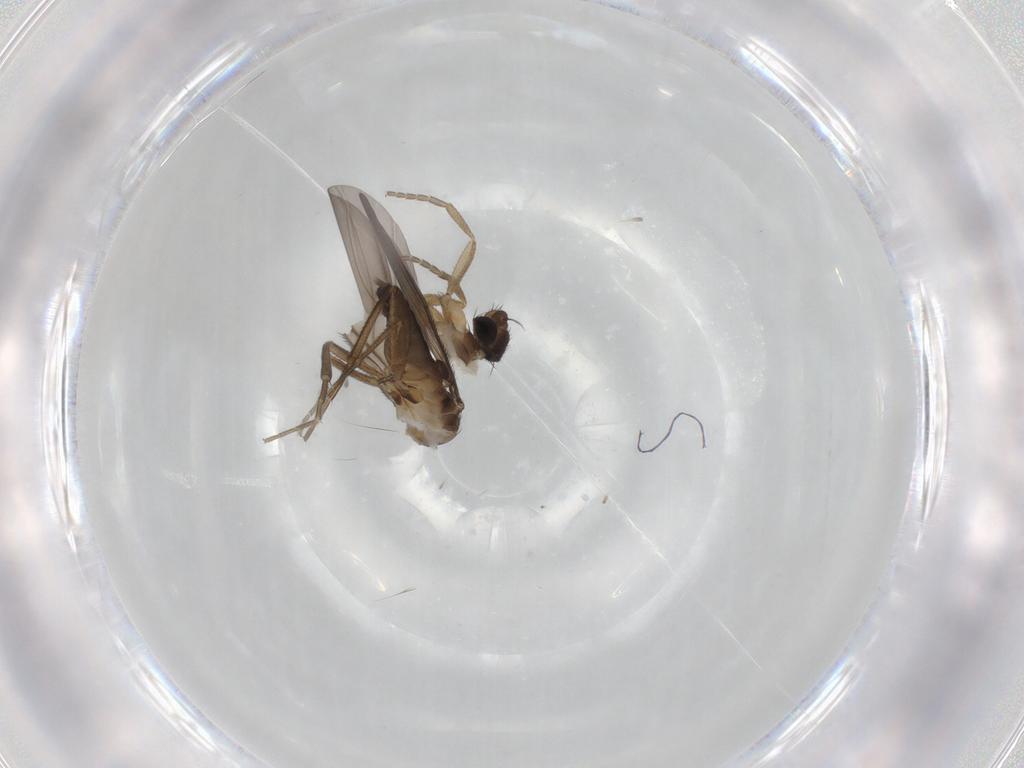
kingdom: Animalia
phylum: Arthropoda
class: Insecta
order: Diptera
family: Phoridae
